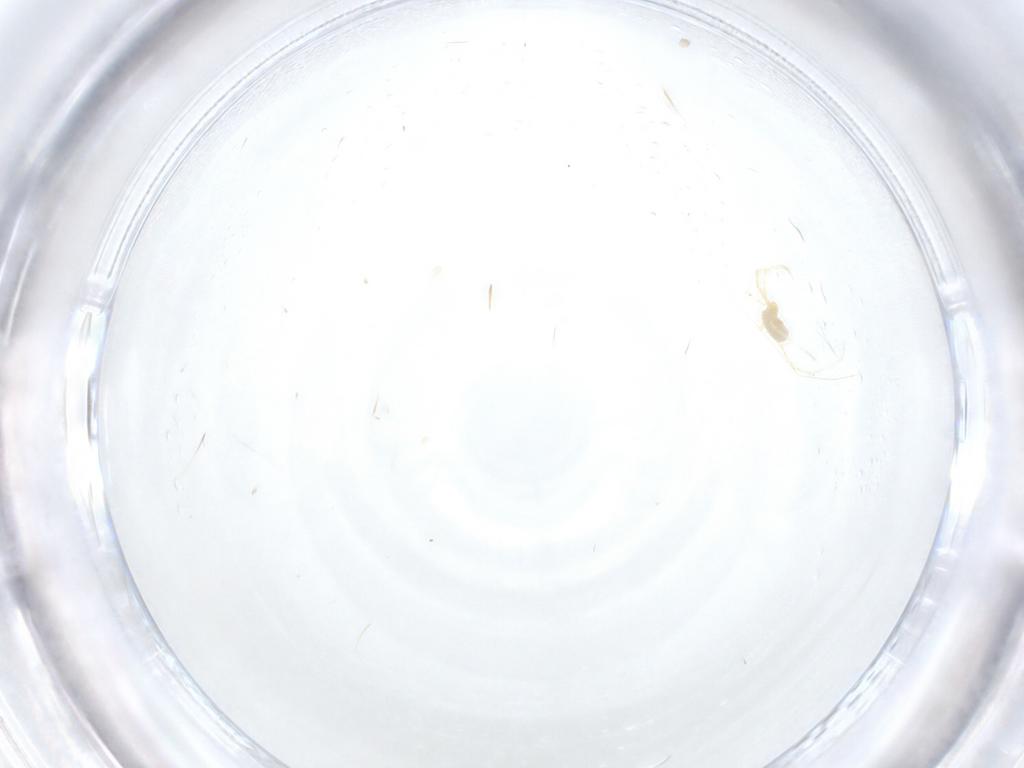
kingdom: Animalia
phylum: Arthropoda
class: Arachnida
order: Trombidiformes
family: Erythraeidae
